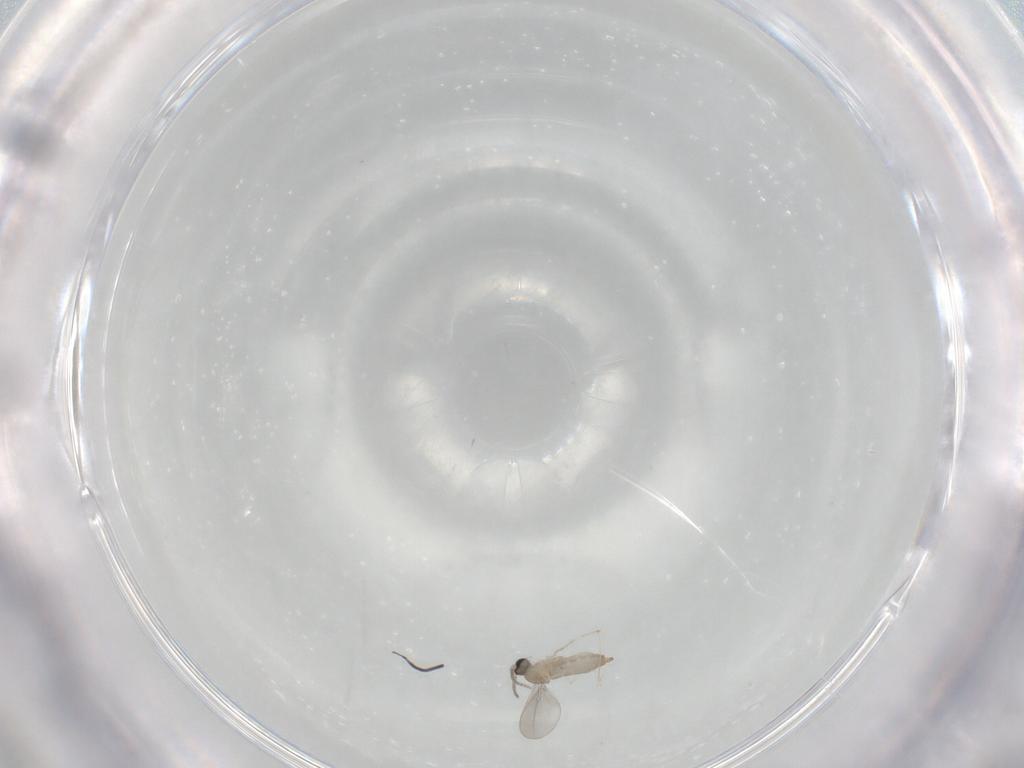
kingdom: Animalia
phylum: Arthropoda
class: Insecta
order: Diptera
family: Cecidomyiidae
